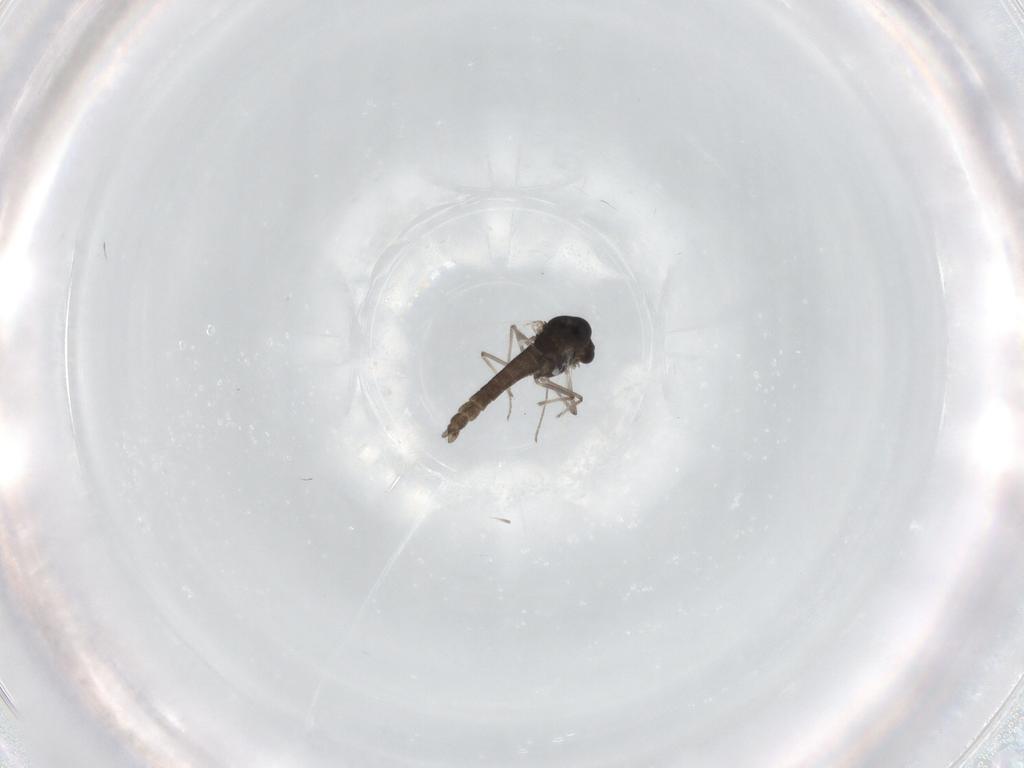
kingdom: Animalia
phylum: Arthropoda
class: Insecta
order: Diptera
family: Chironomidae
